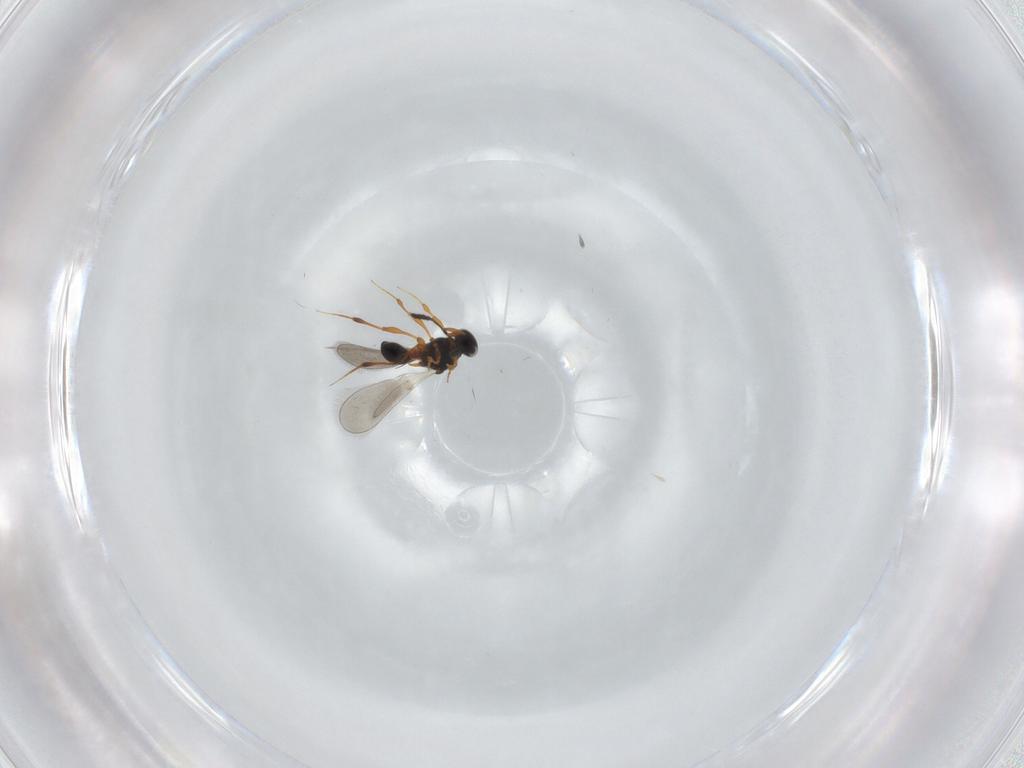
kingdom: Animalia
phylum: Arthropoda
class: Insecta
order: Hymenoptera
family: Platygastridae
